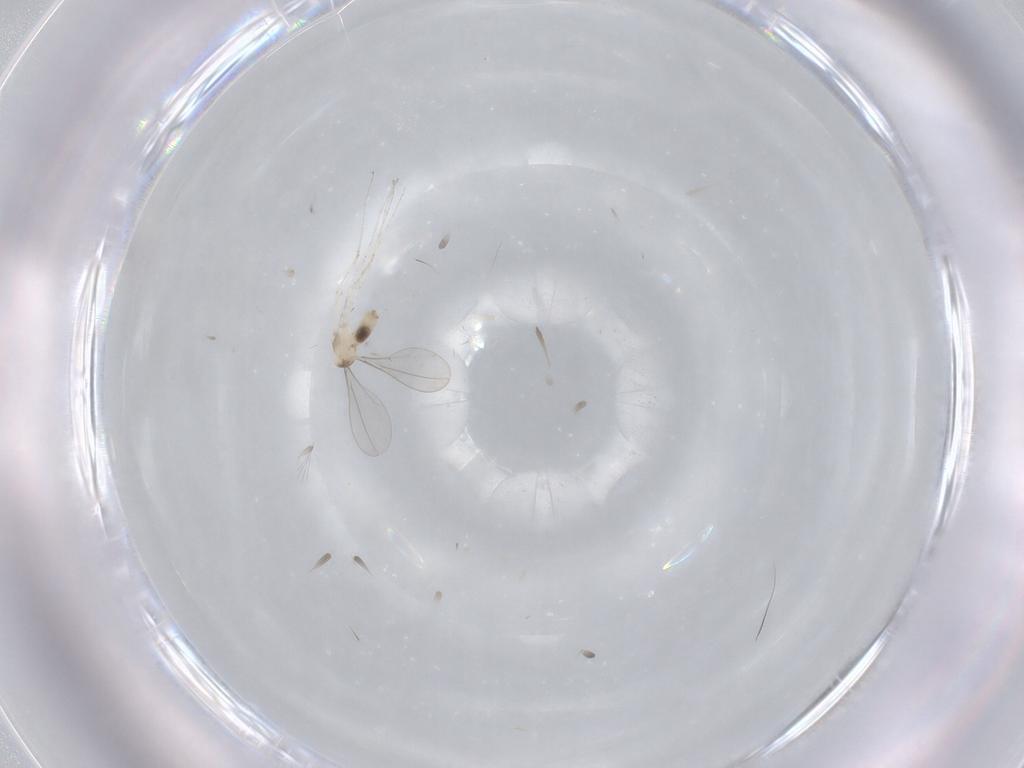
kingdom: Animalia
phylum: Arthropoda
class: Insecta
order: Diptera
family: Cecidomyiidae
